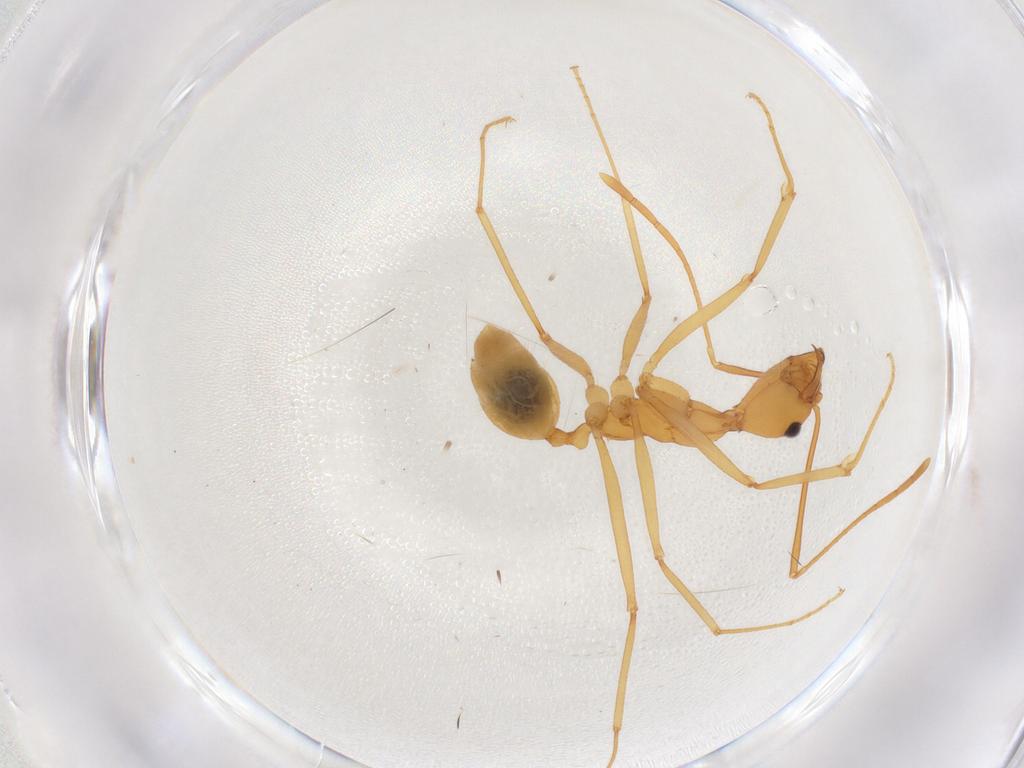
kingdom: Animalia
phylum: Arthropoda
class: Insecta
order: Hymenoptera
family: Formicidae
